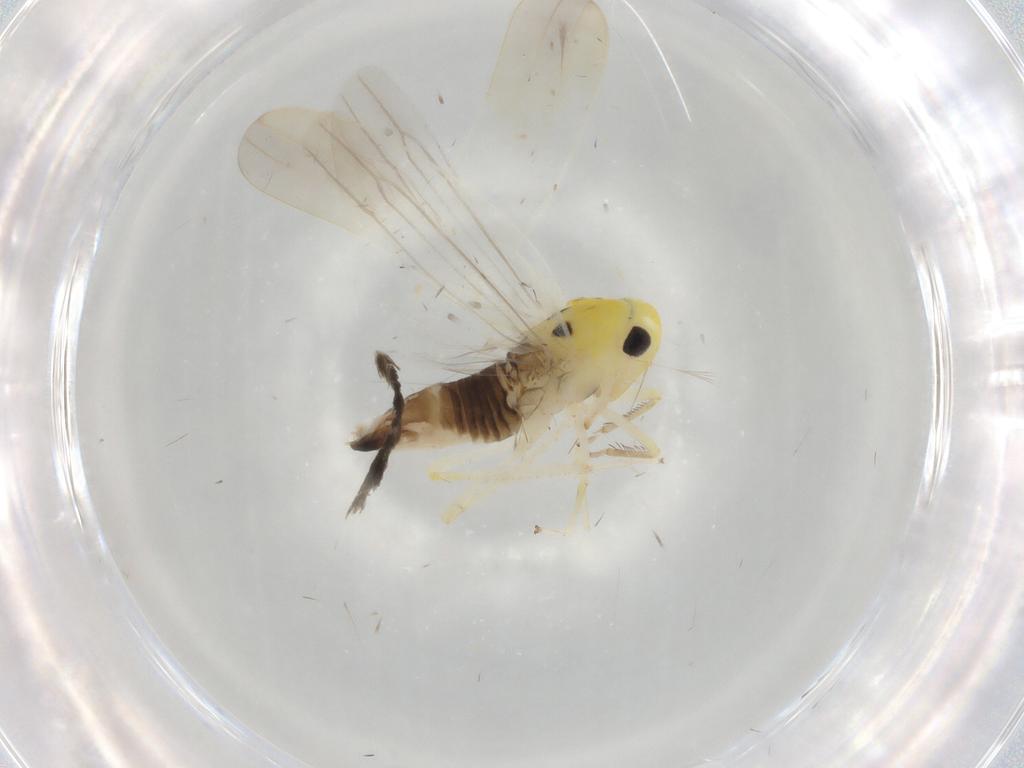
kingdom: Animalia
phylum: Arthropoda
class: Insecta
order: Hemiptera
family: Cicadellidae
